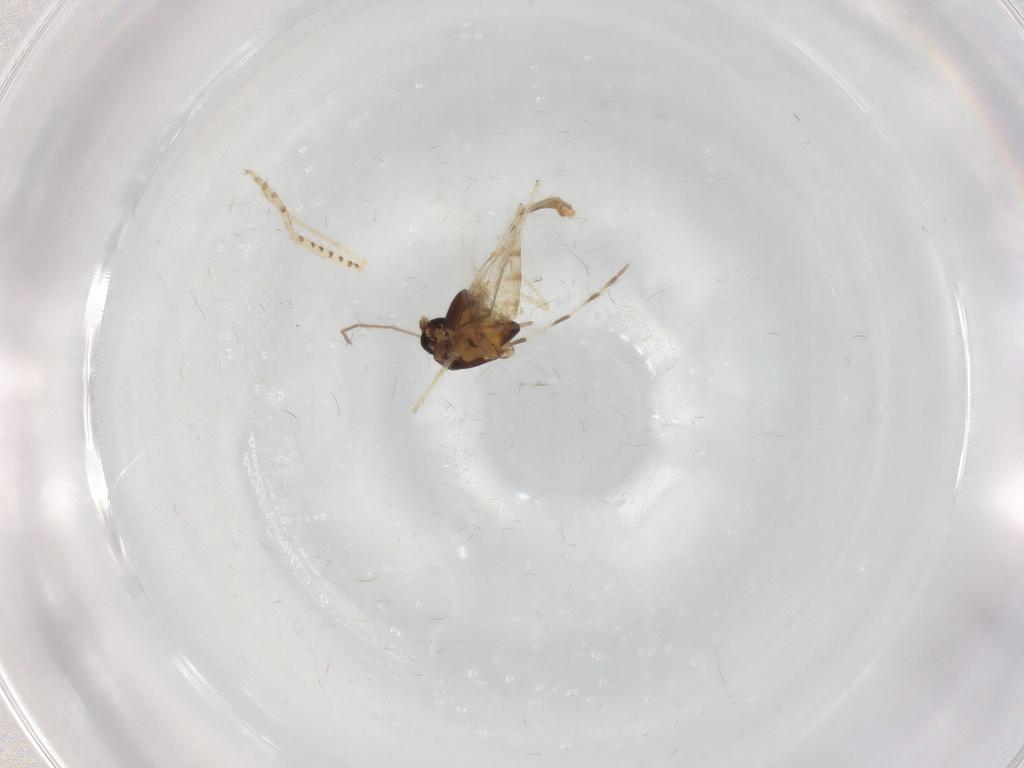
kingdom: Animalia
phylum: Arthropoda
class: Insecta
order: Diptera
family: Chironomidae
